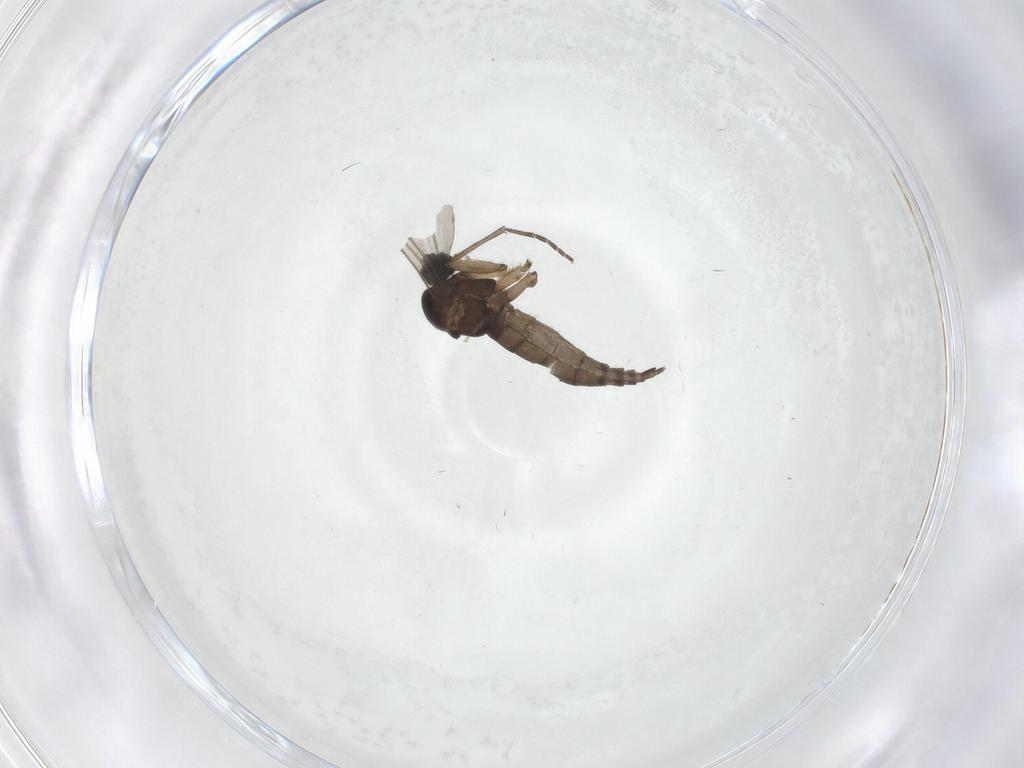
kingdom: Animalia
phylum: Arthropoda
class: Insecta
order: Diptera
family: Sciaridae
